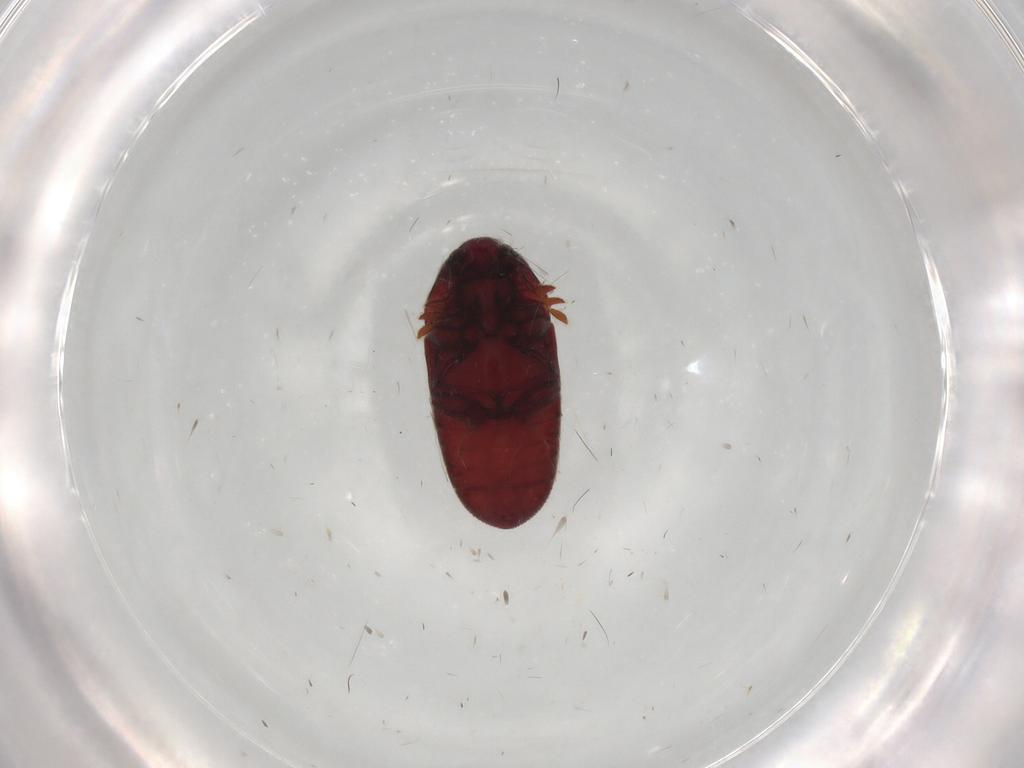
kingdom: Animalia
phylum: Arthropoda
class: Insecta
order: Coleoptera
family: Throscidae
